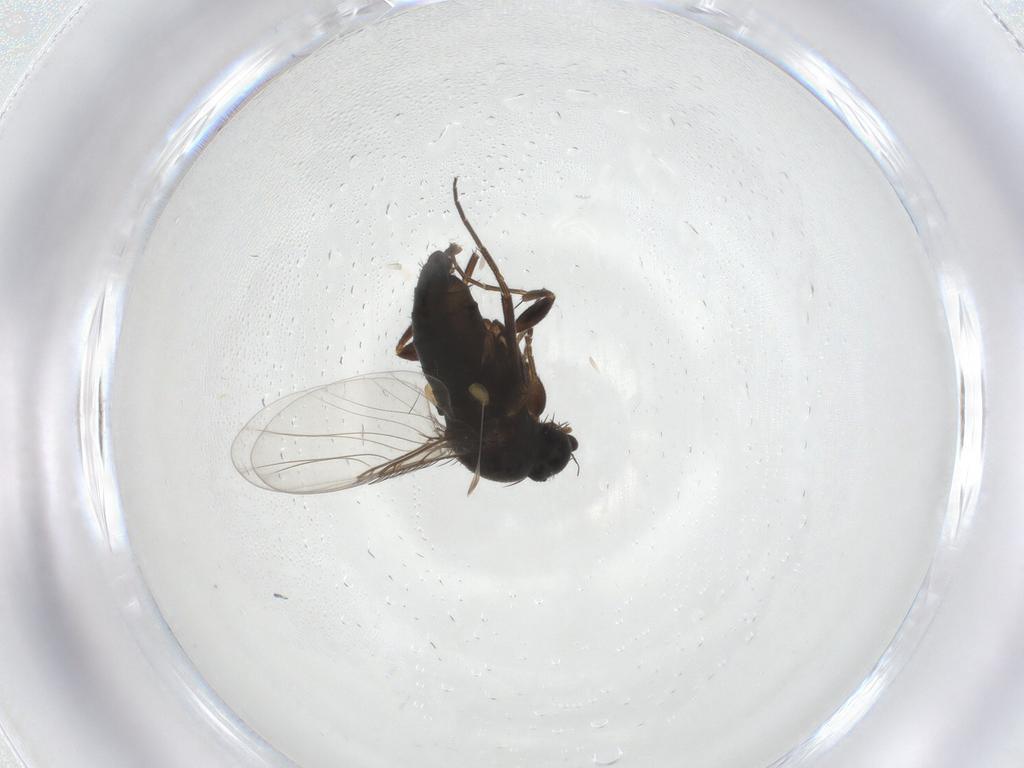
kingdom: Animalia
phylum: Arthropoda
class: Insecta
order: Diptera
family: Phoridae
